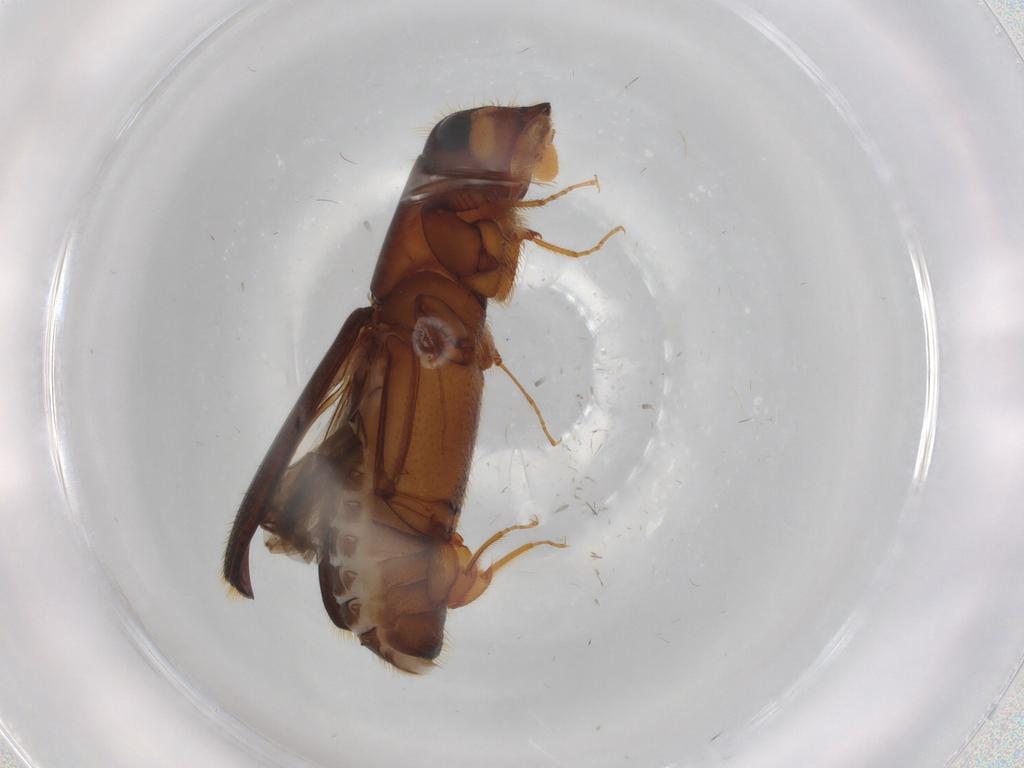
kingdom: Animalia
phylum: Arthropoda
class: Insecta
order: Coleoptera
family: Curculionidae
